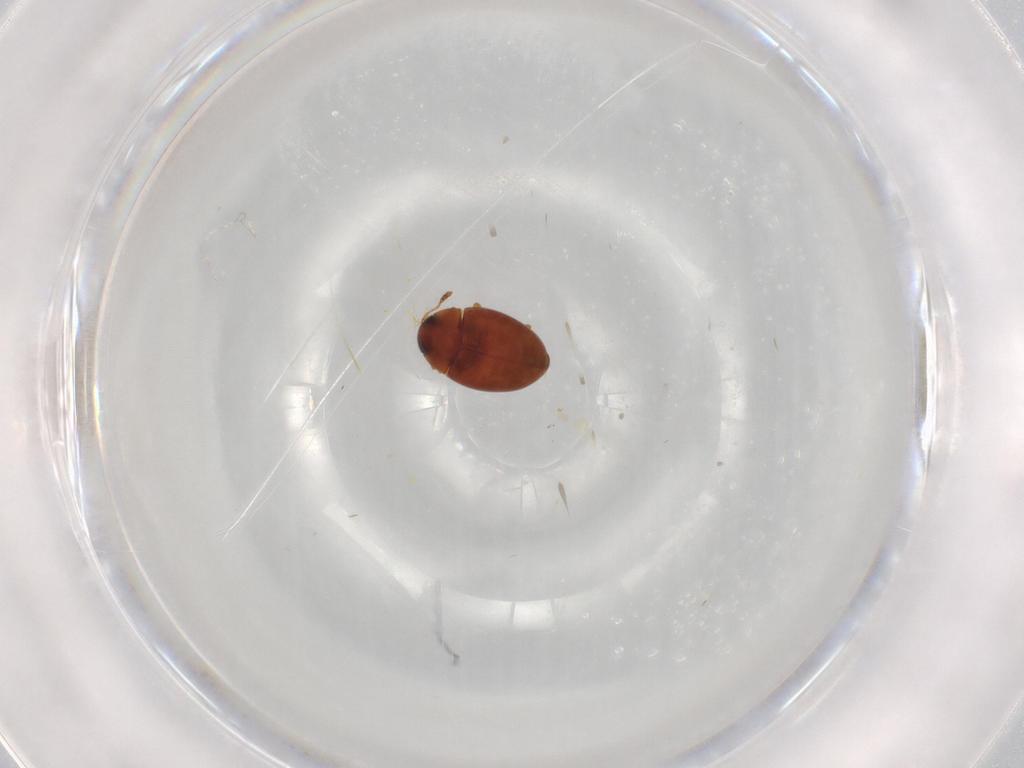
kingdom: Animalia
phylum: Arthropoda
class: Insecta
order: Coleoptera
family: Cryptophagidae
